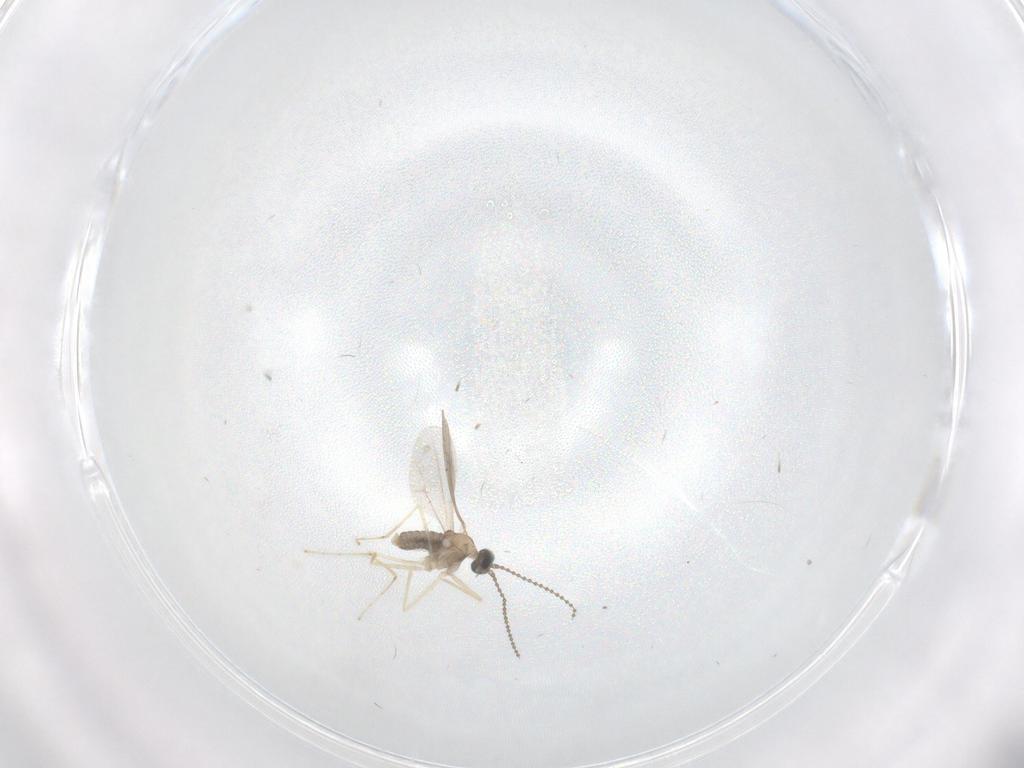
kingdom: Animalia
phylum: Arthropoda
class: Insecta
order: Diptera
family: Cecidomyiidae
